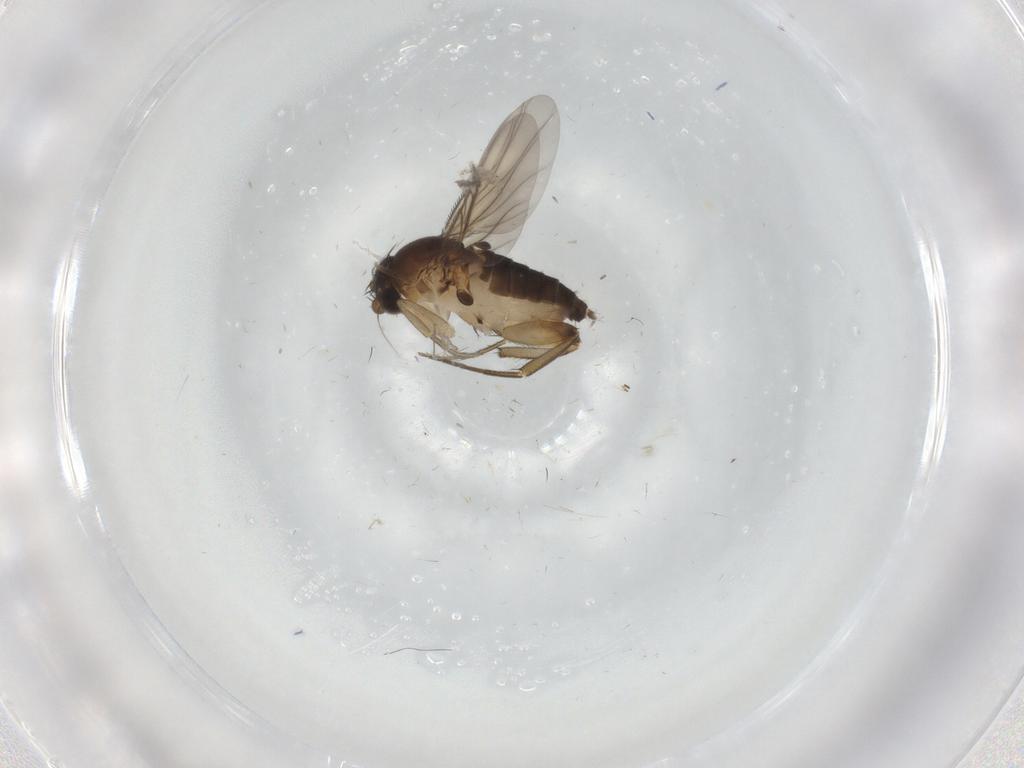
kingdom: Animalia
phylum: Arthropoda
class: Insecta
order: Diptera
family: Phoridae
